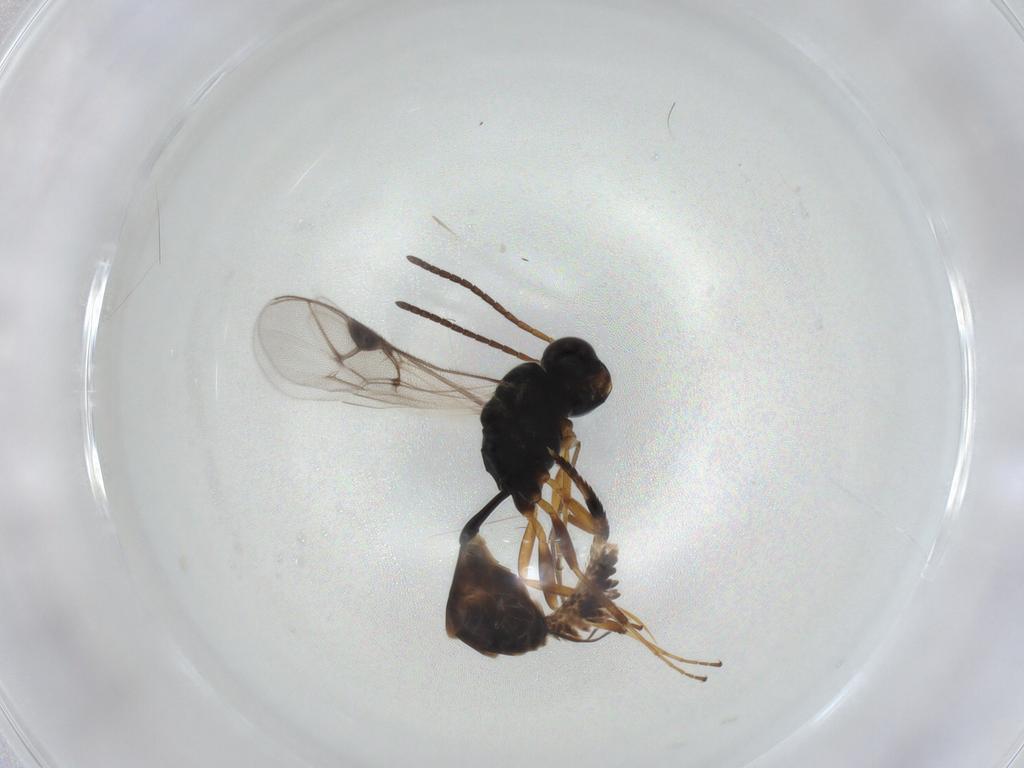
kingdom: Animalia
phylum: Arthropoda
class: Insecta
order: Hymenoptera
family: Ichneumonidae
